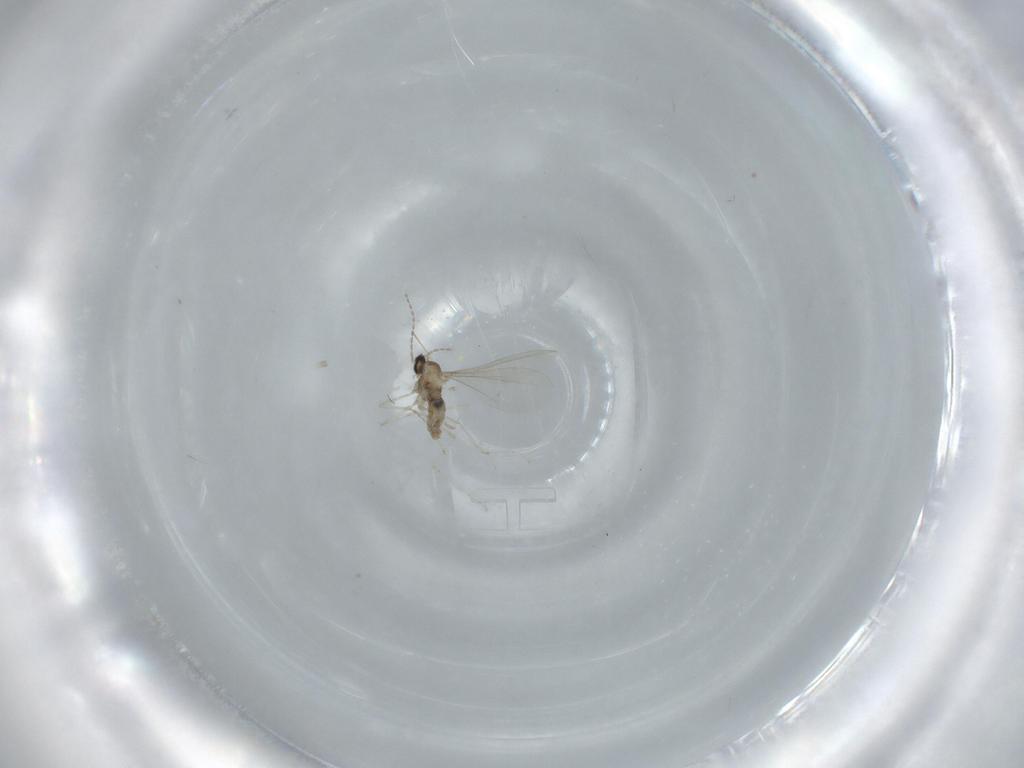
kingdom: Animalia
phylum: Arthropoda
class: Insecta
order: Diptera
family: Cecidomyiidae
